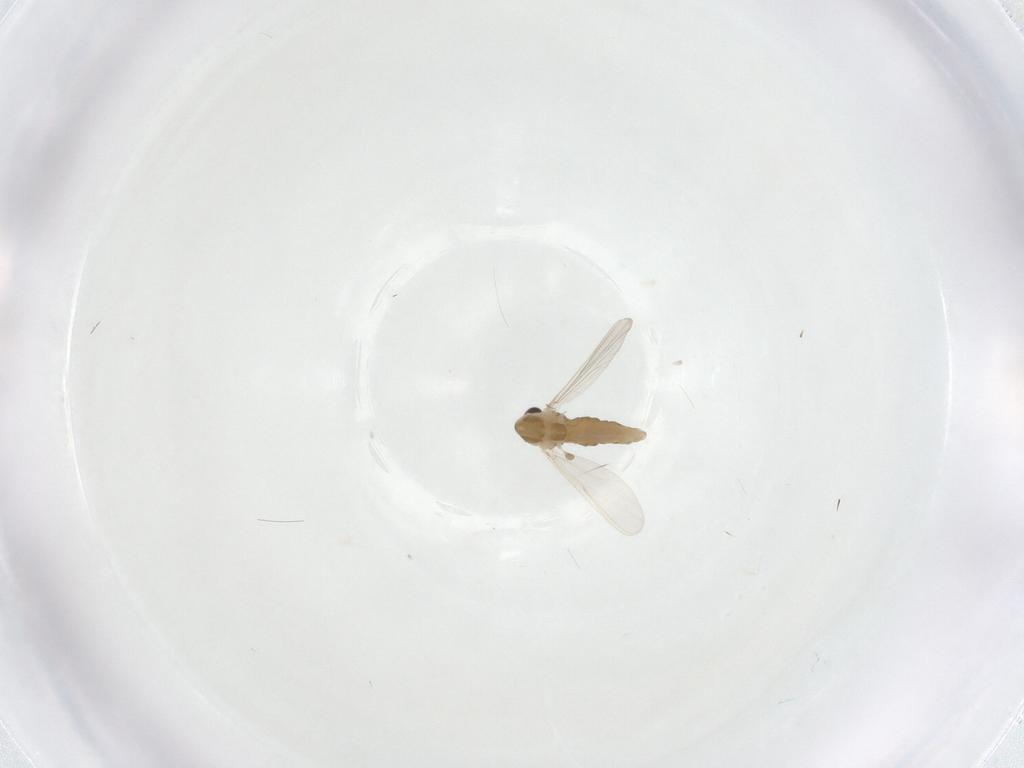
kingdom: Animalia
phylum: Arthropoda
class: Insecta
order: Diptera
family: Chironomidae
